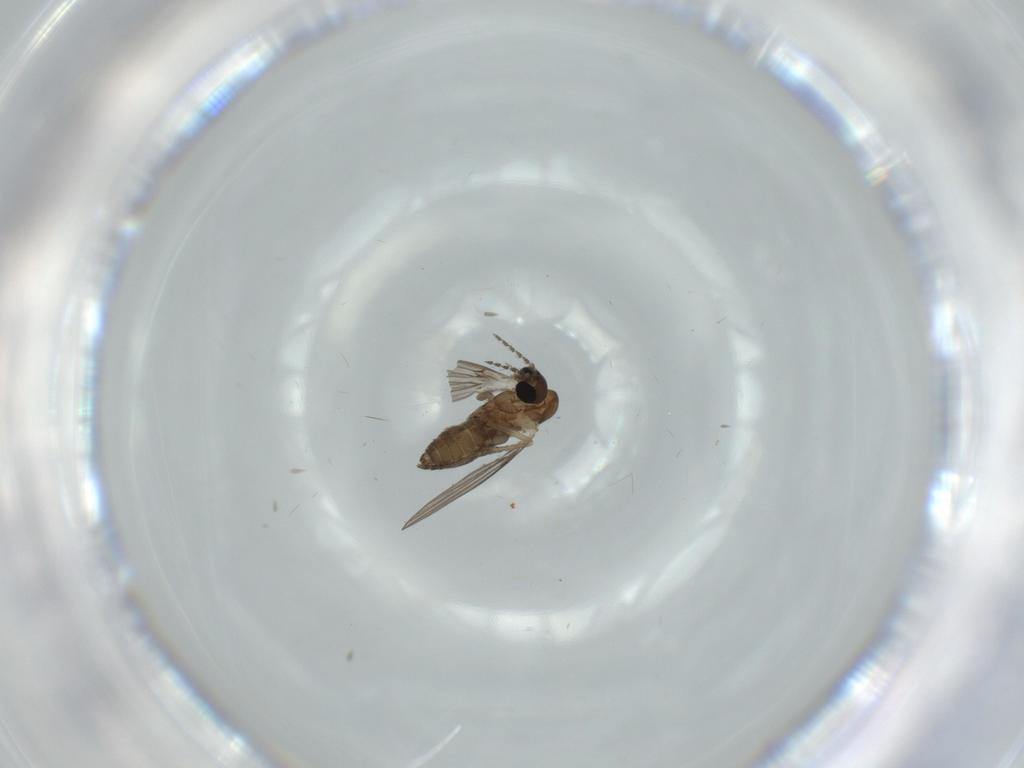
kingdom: Animalia
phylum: Arthropoda
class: Insecta
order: Diptera
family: Psychodidae
